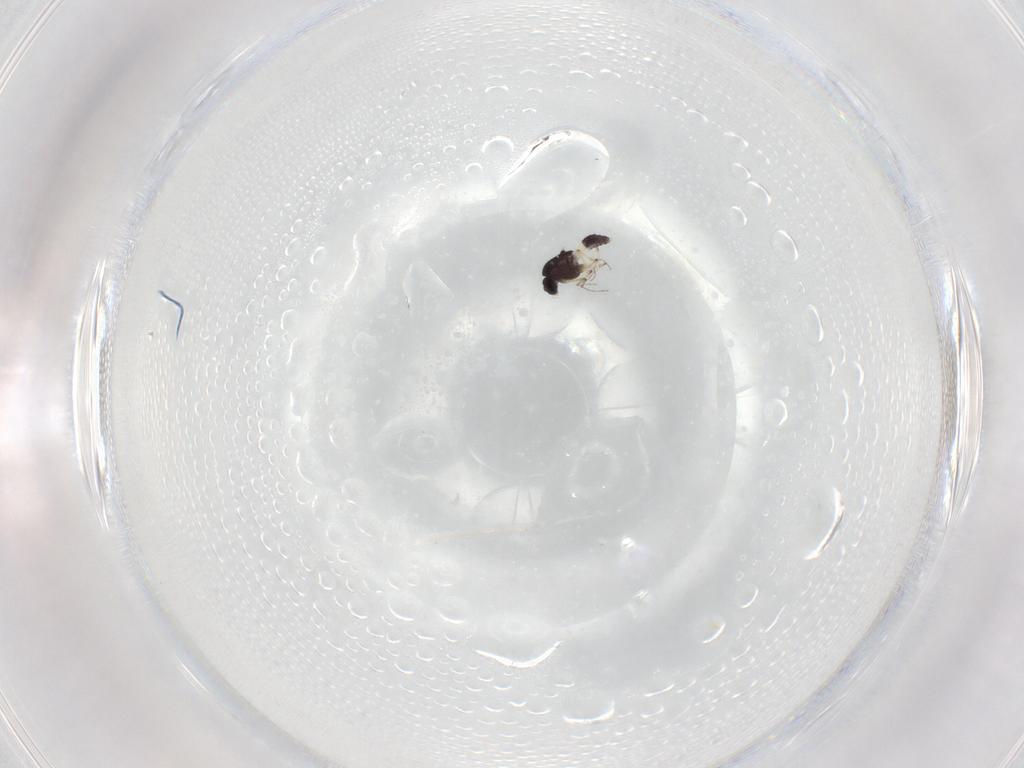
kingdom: Animalia
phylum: Arthropoda
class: Insecta
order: Diptera
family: Chironomidae
